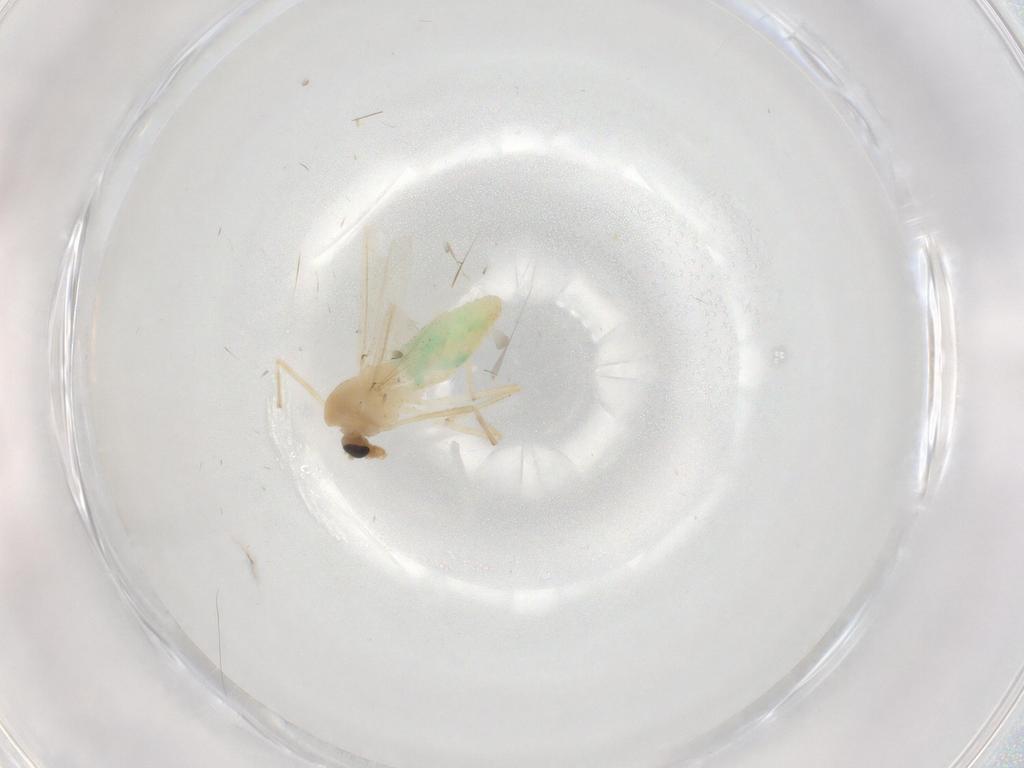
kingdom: Animalia
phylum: Arthropoda
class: Insecta
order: Diptera
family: Chironomidae
